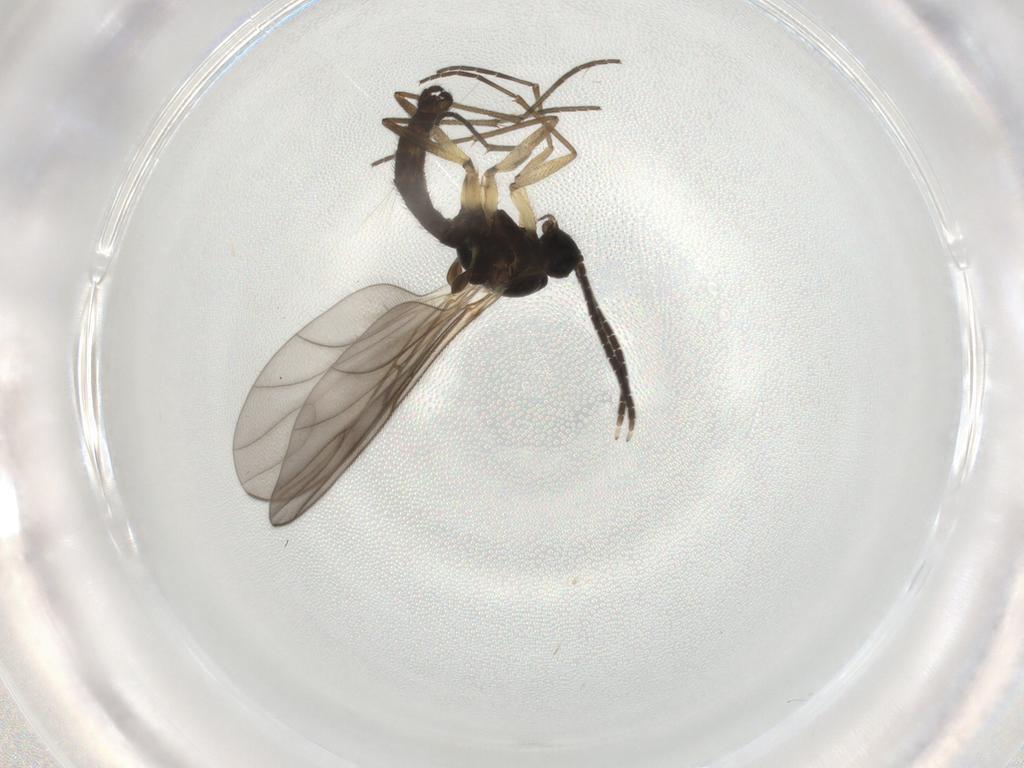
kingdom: Animalia
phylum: Arthropoda
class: Insecta
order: Diptera
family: Sciaridae
